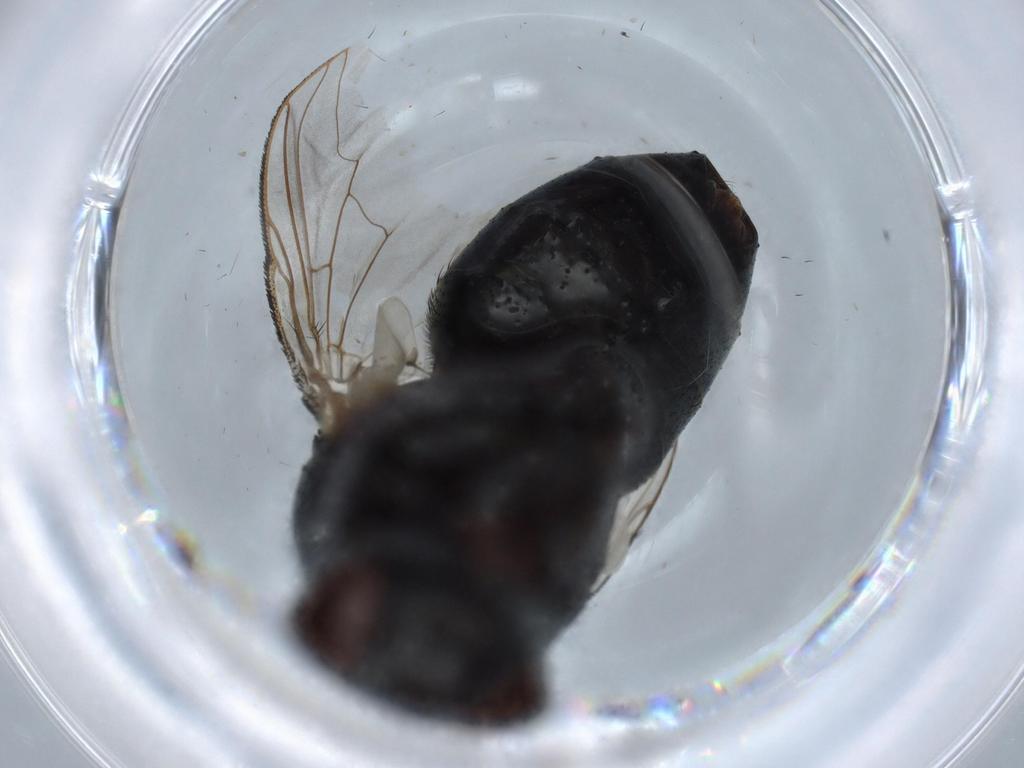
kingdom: Animalia
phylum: Arthropoda
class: Insecta
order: Diptera
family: Sarcophagidae
